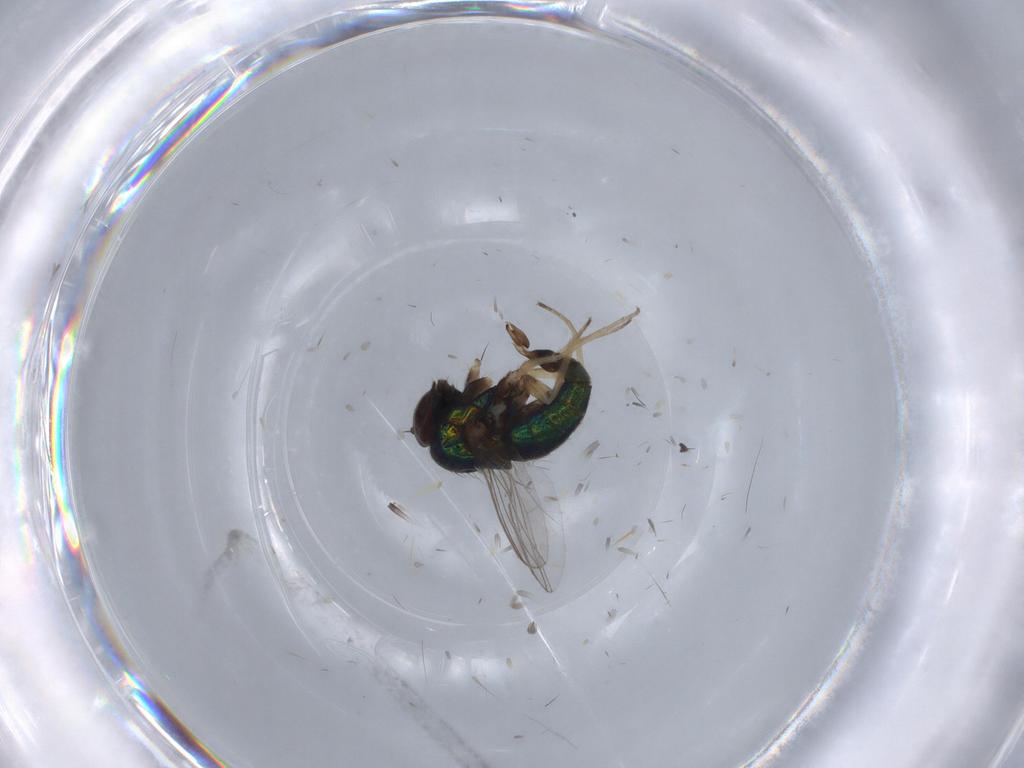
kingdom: Animalia
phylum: Arthropoda
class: Insecta
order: Diptera
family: Dolichopodidae
